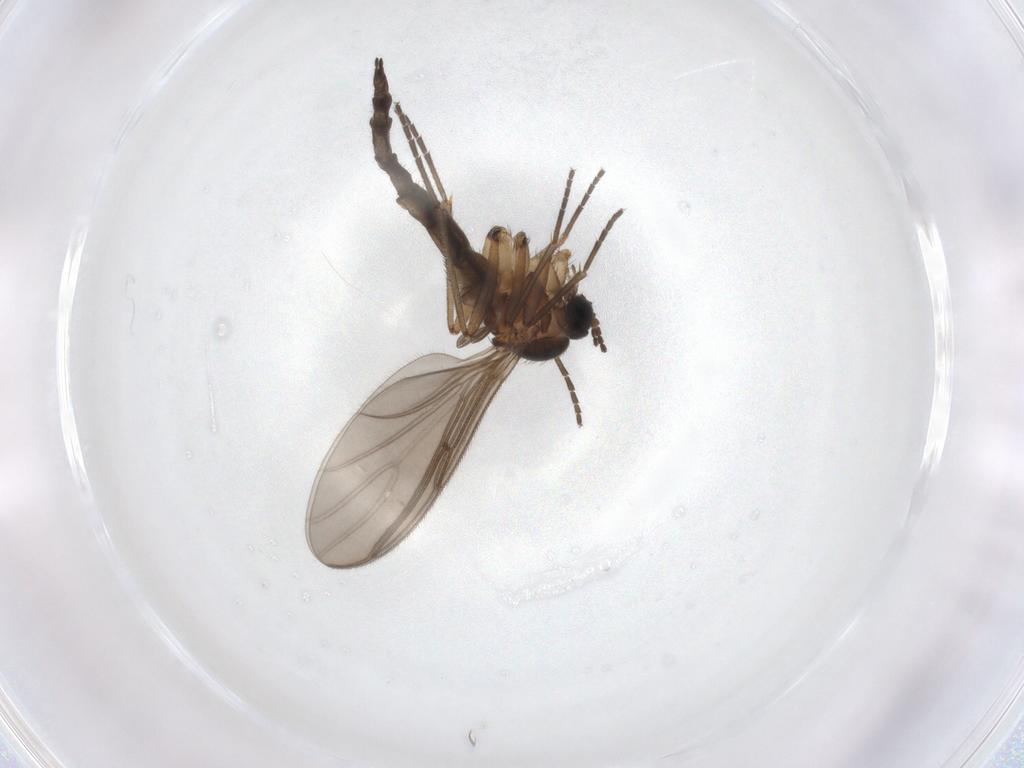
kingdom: Animalia
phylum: Arthropoda
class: Insecta
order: Diptera
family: Sciaridae
